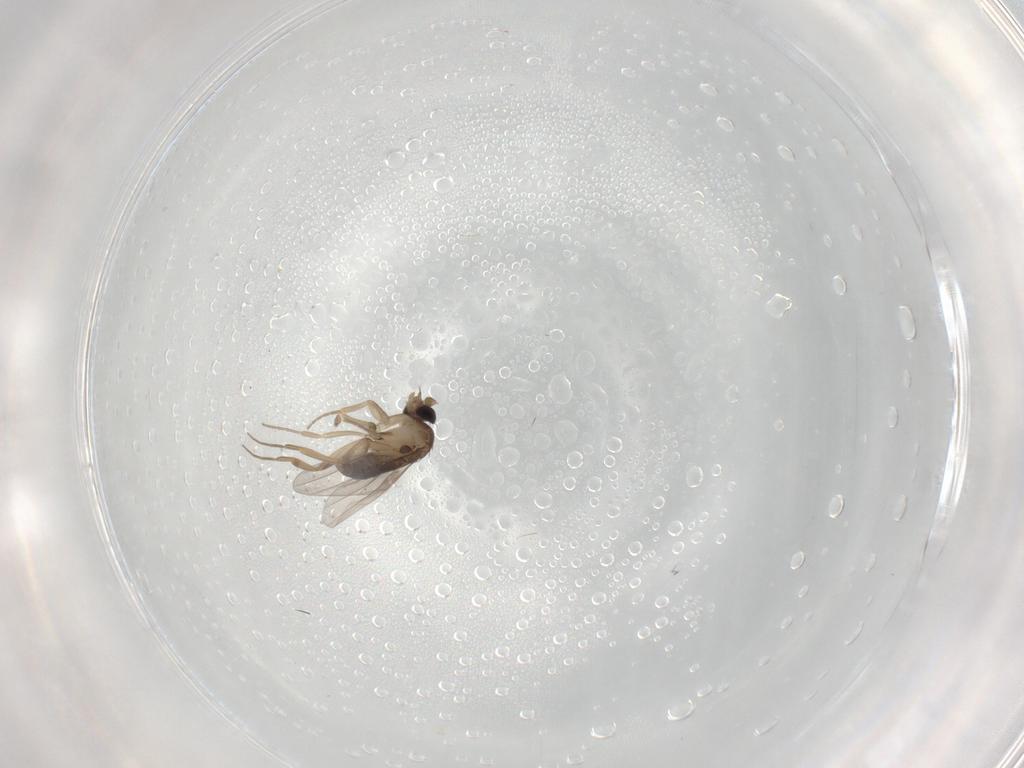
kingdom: Animalia
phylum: Arthropoda
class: Insecta
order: Diptera
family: Phoridae
